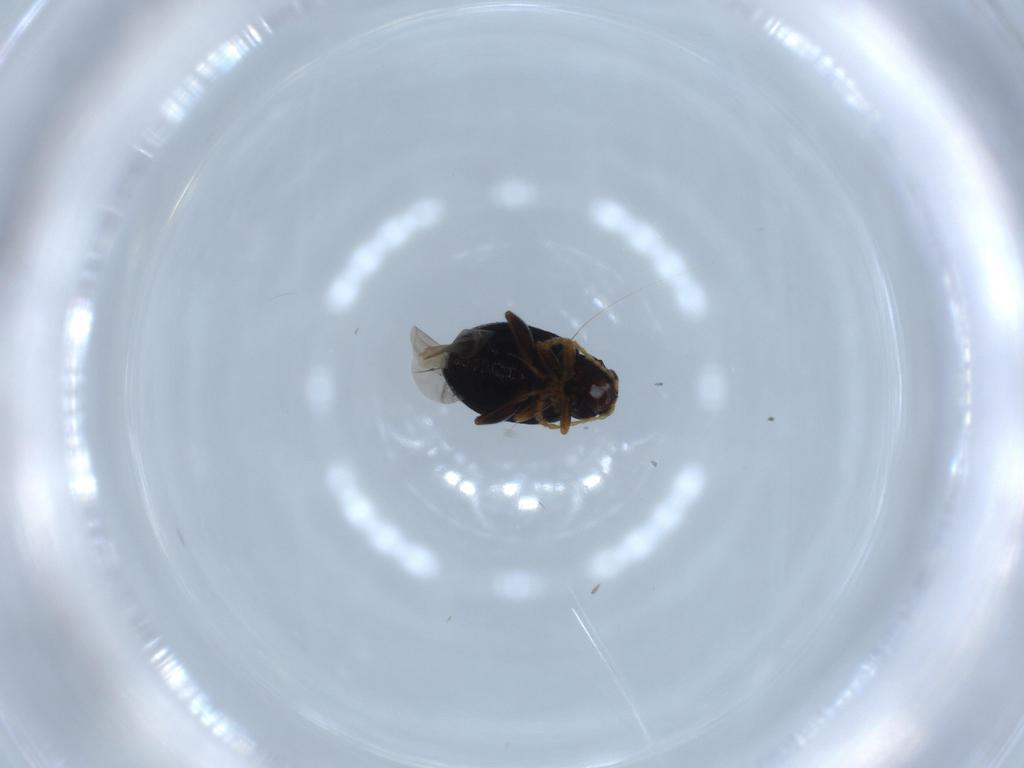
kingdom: Animalia
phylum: Arthropoda
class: Insecta
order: Coleoptera
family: Chrysomelidae
